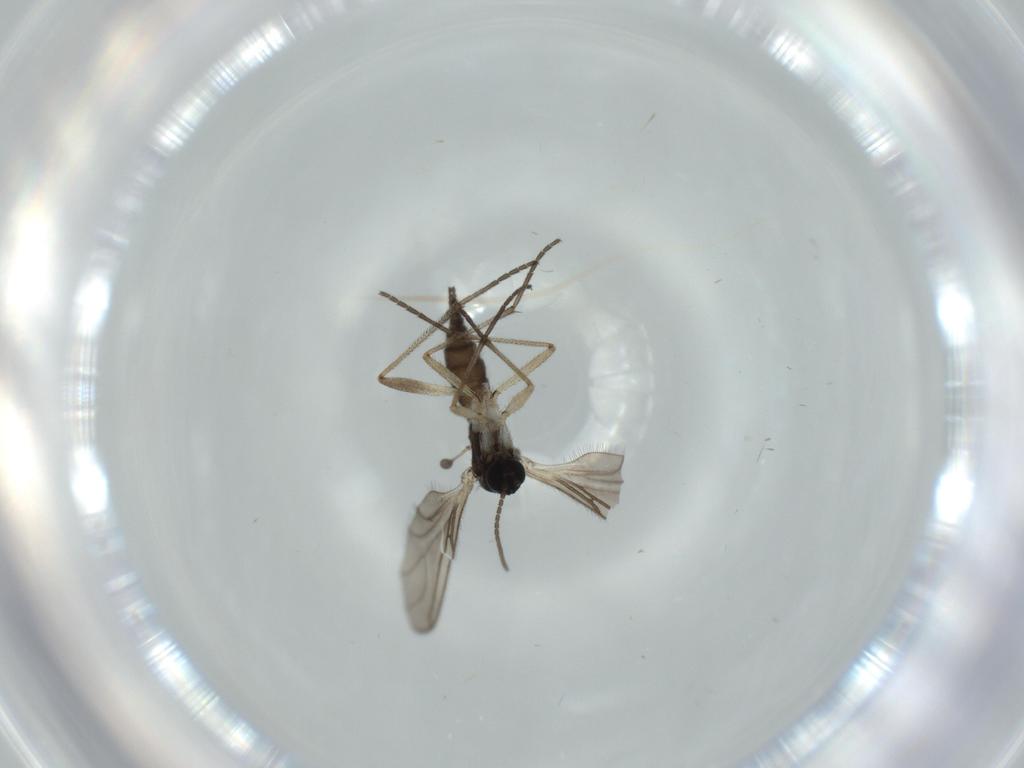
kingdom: Animalia
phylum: Arthropoda
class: Insecta
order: Diptera
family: Sciaridae
